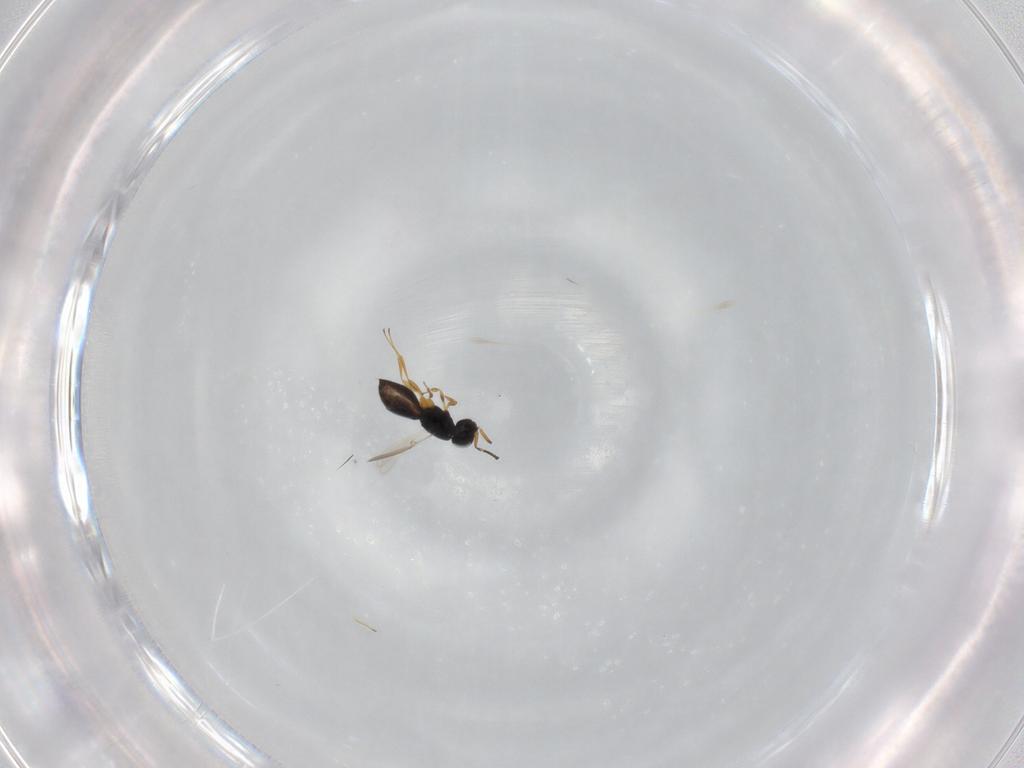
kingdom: Animalia
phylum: Arthropoda
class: Insecta
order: Hymenoptera
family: Scelionidae
